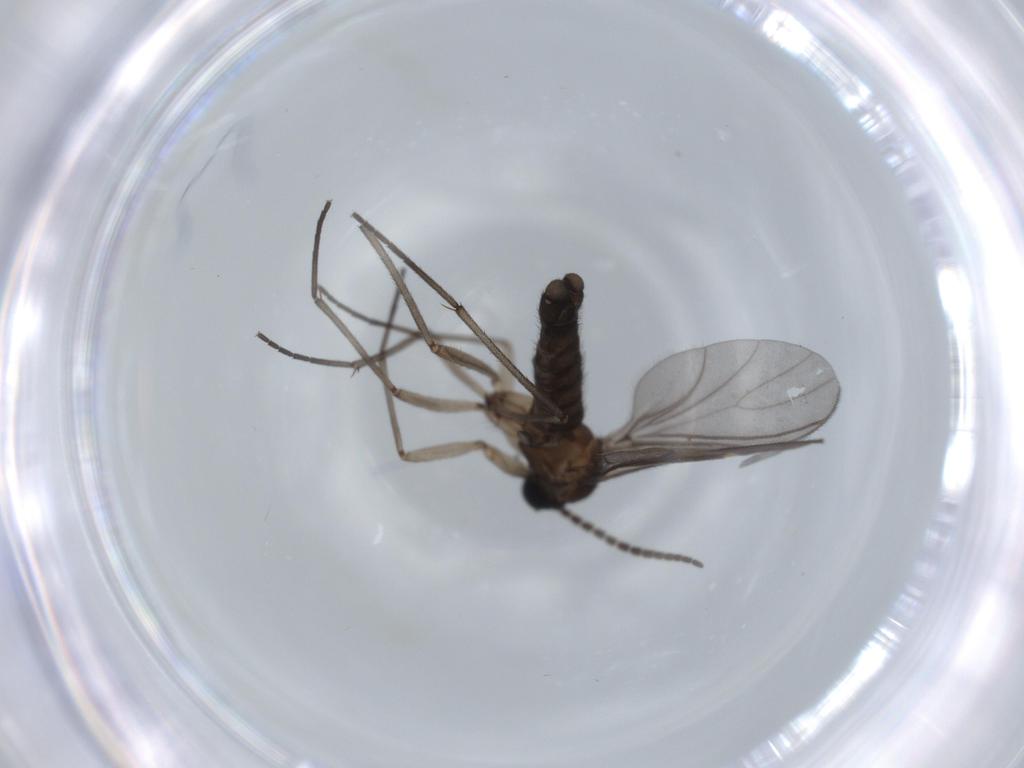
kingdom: Animalia
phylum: Arthropoda
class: Insecta
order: Diptera
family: Sciaridae
